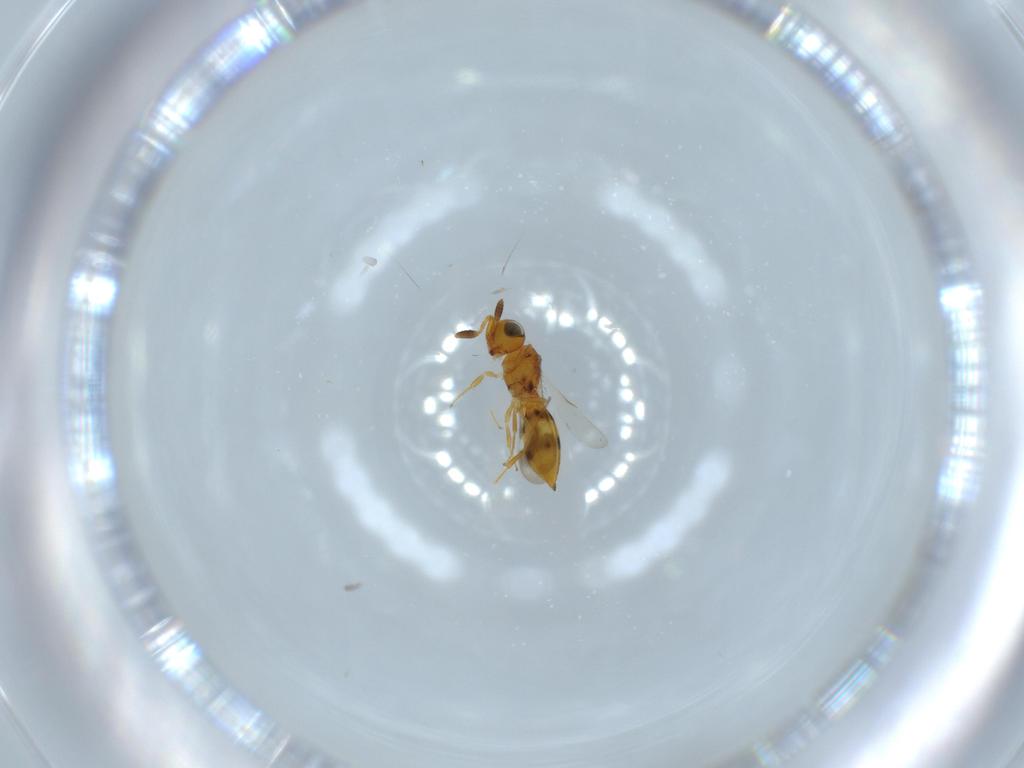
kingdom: Animalia
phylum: Arthropoda
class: Insecta
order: Hymenoptera
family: Scelionidae
